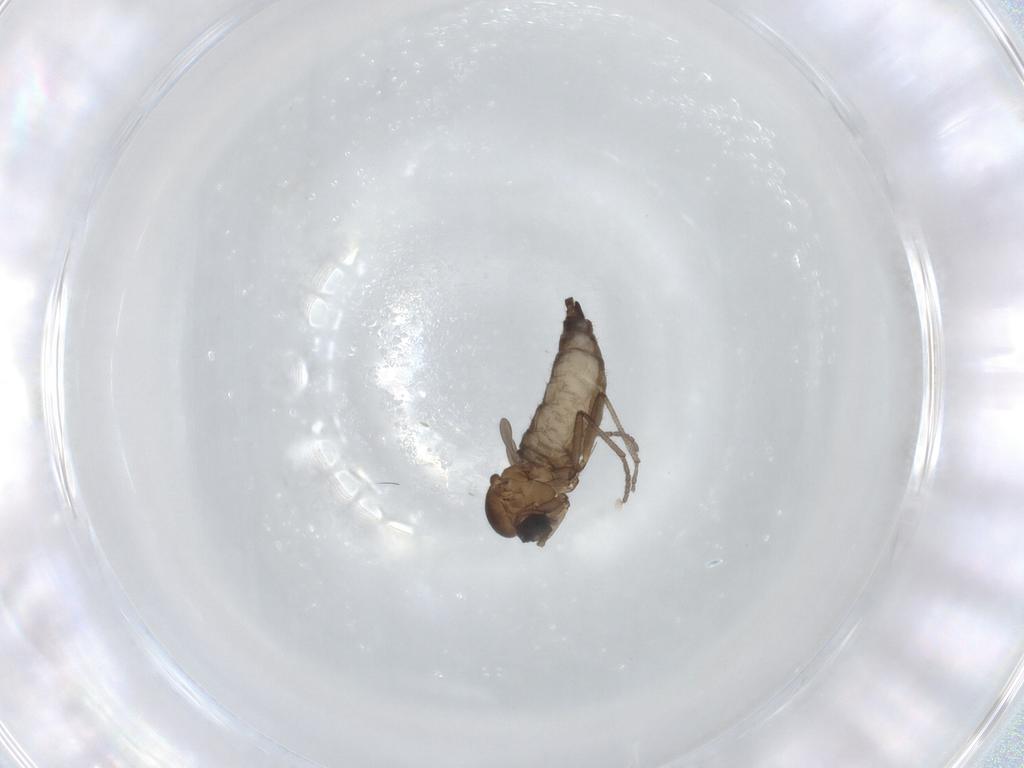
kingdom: Animalia
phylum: Arthropoda
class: Insecta
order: Diptera
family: Sciaridae
